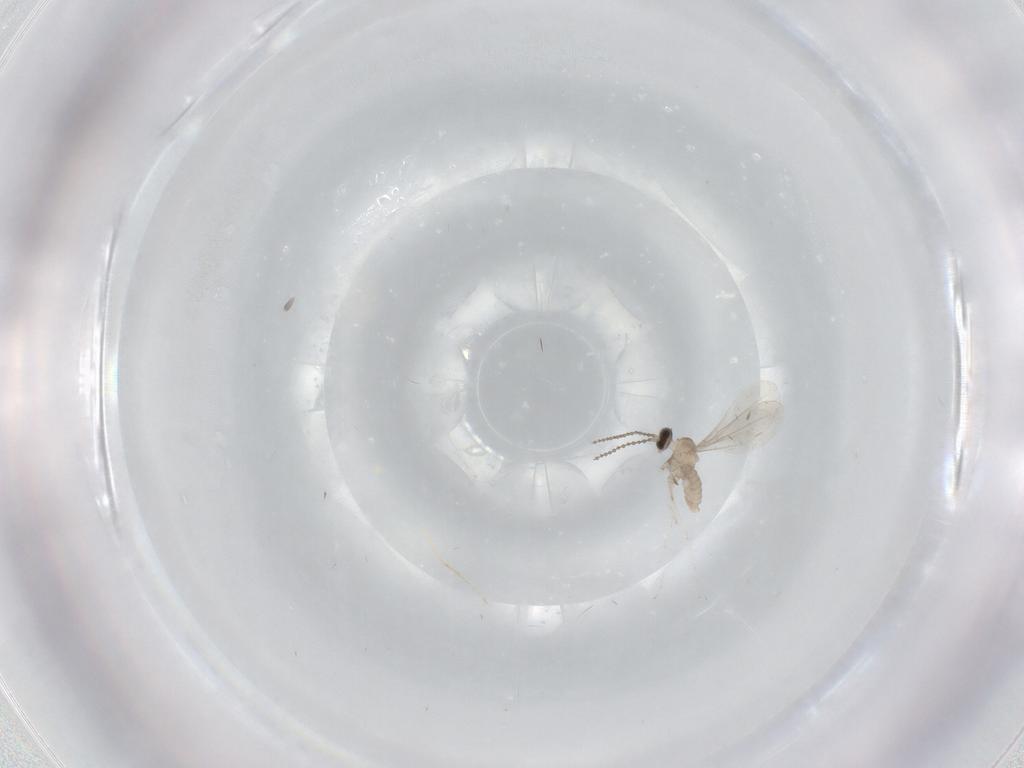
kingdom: Animalia
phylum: Arthropoda
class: Insecta
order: Diptera
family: Cecidomyiidae
